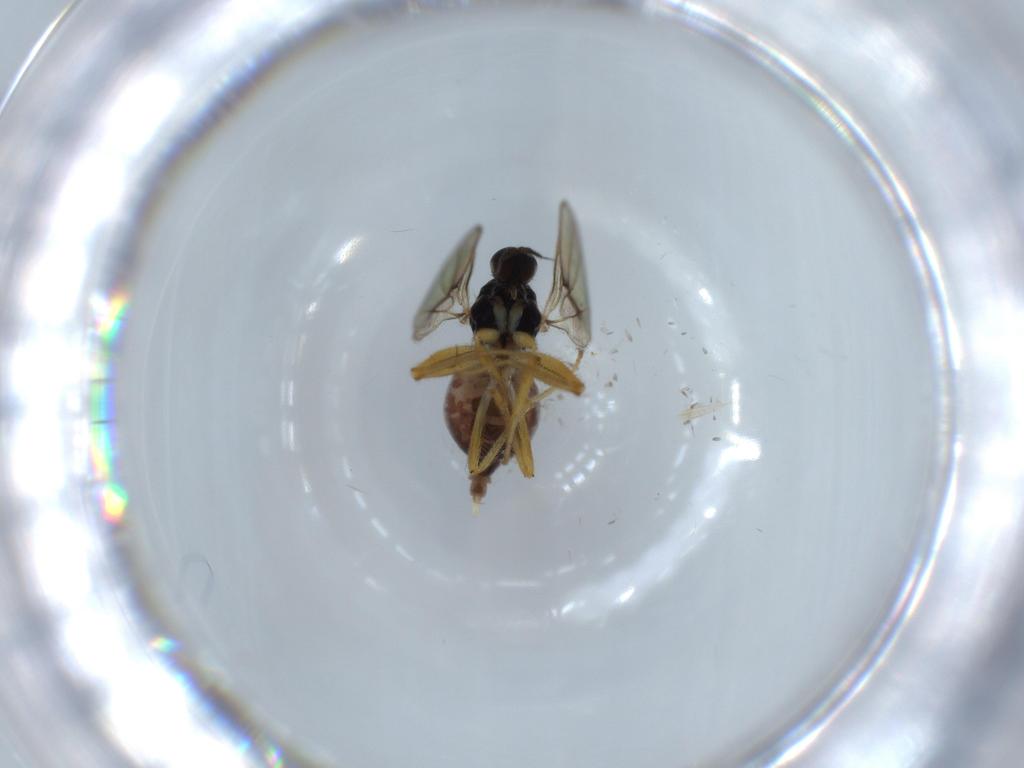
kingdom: Animalia
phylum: Arthropoda
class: Insecta
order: Diptera
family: Hybotidae
